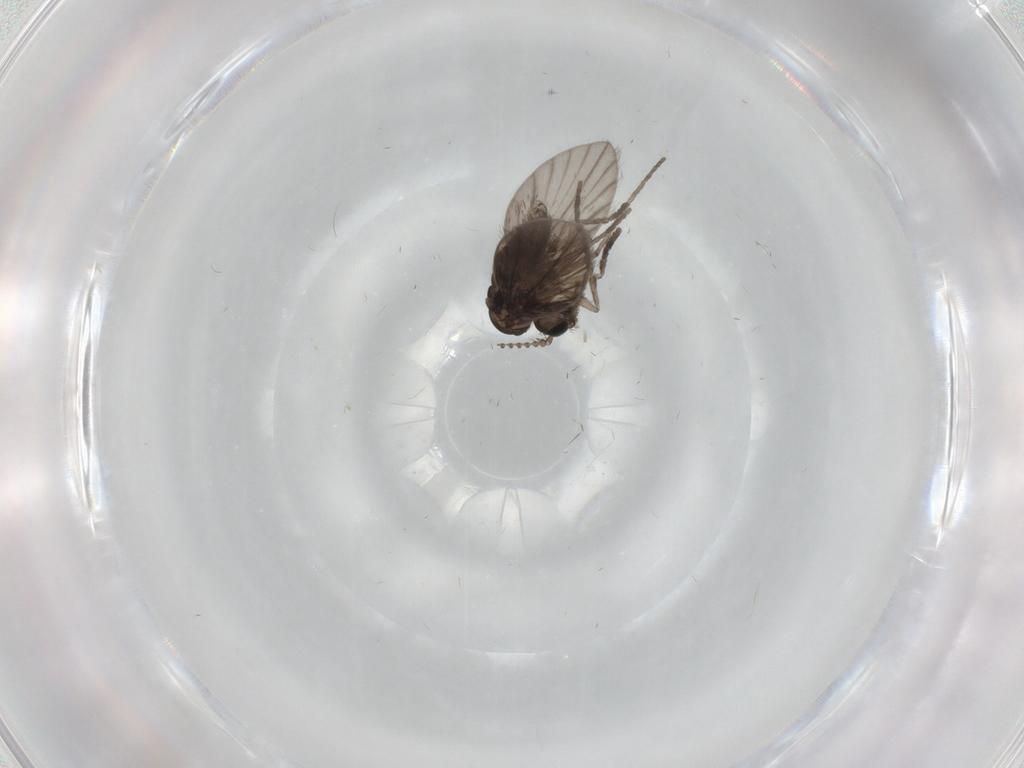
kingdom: Animalia
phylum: Arthropoda
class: Insecta
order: Diptera
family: Psychodidae
